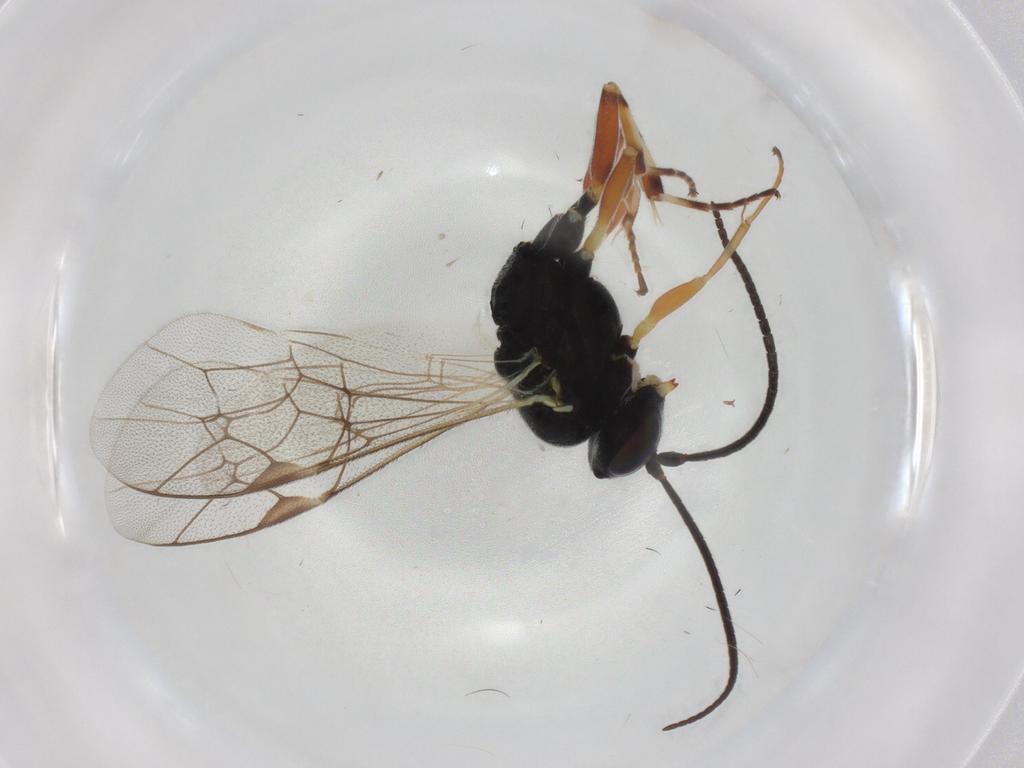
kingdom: Animalia
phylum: Arthropoda
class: Insecta
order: Hymenoptera
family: Ichneumonidae
